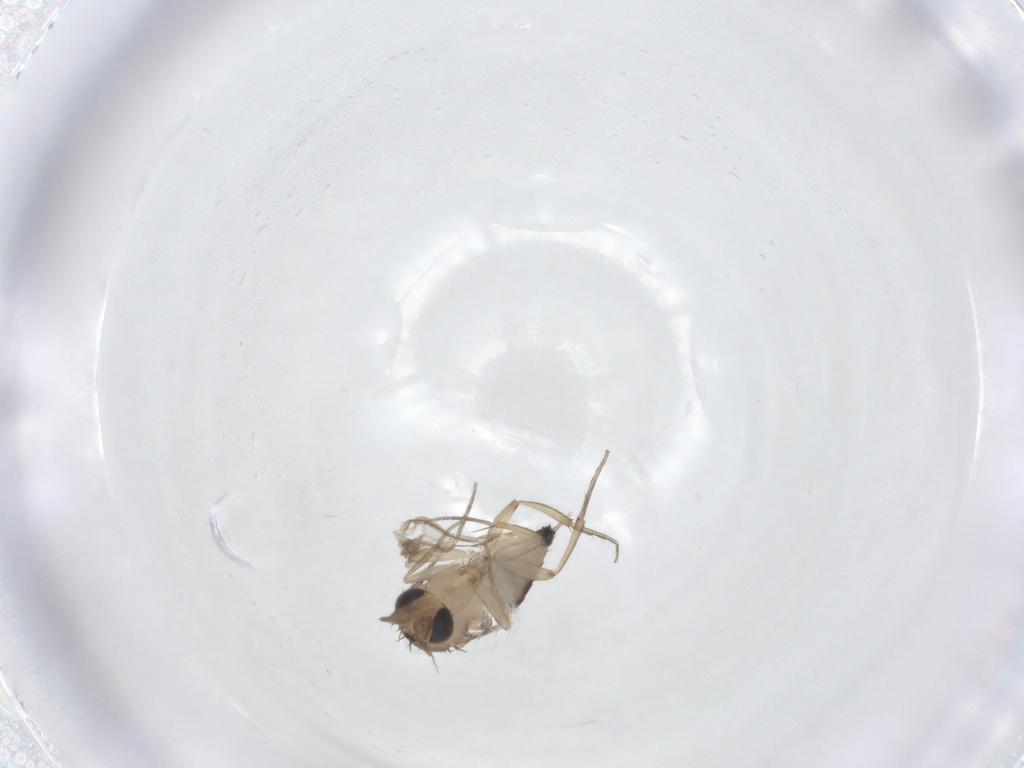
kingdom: Animalia
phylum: Arthropoda
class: Insecta
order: Diptera
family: Phoridae
